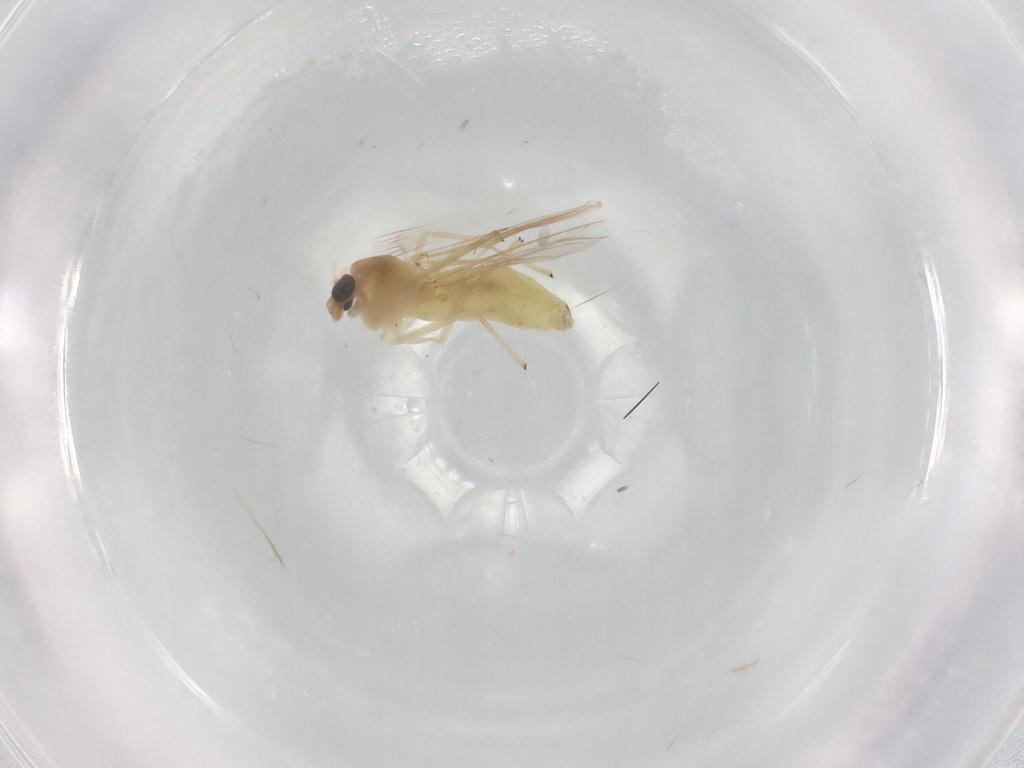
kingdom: Animalia
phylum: Arthropoda
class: Insecta
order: Diptera
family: Chironomidae
